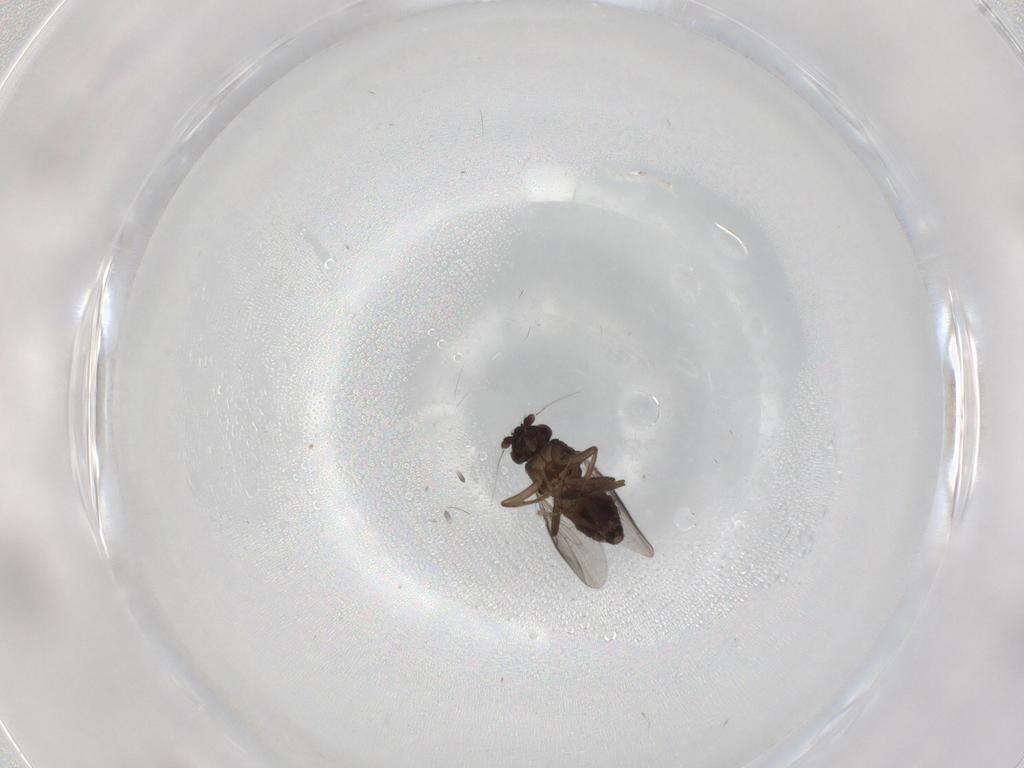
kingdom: Animalia
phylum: Arthropoda
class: Insecta
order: Diptera
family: Sphaeroceridae
